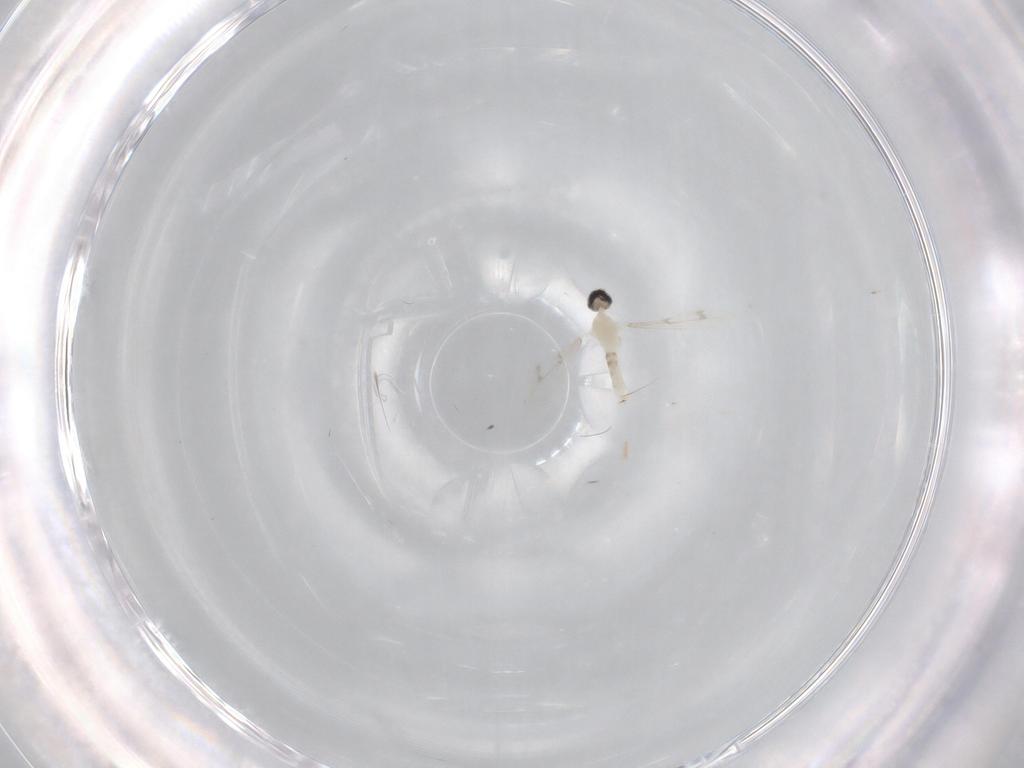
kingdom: Animalia
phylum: Arthropoda
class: Insecta
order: Diptera
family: Cecidomyiidae
